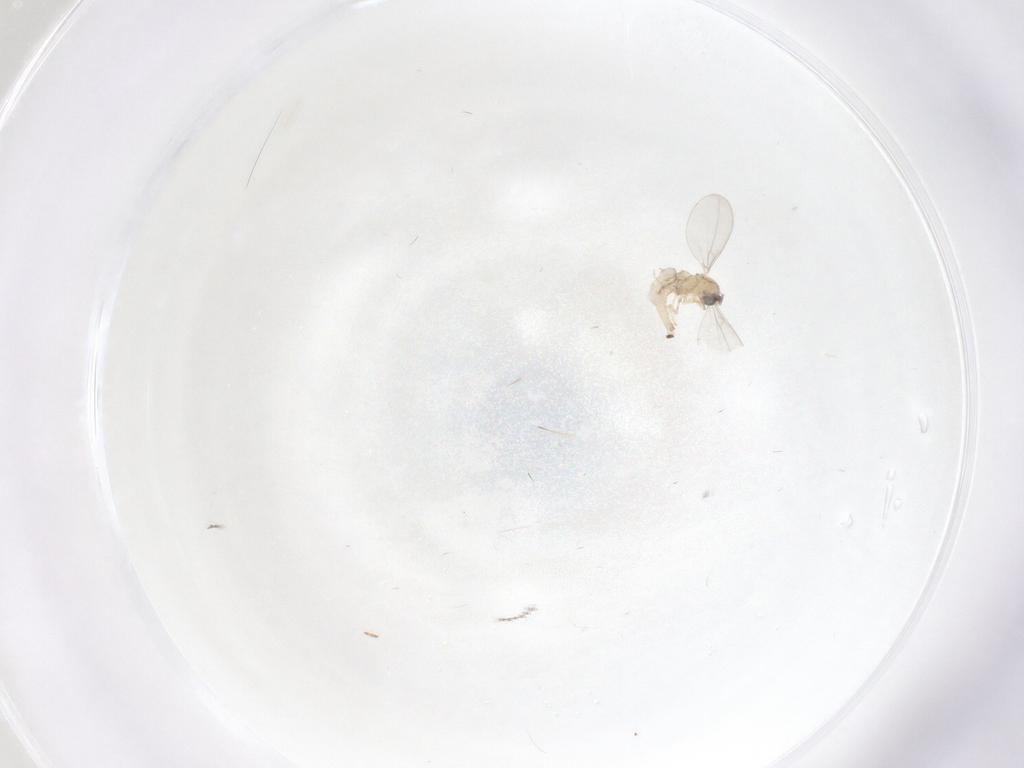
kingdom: Animalia
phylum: Arthropoda
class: Insecta
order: Diptera
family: Cecidomyiidae
